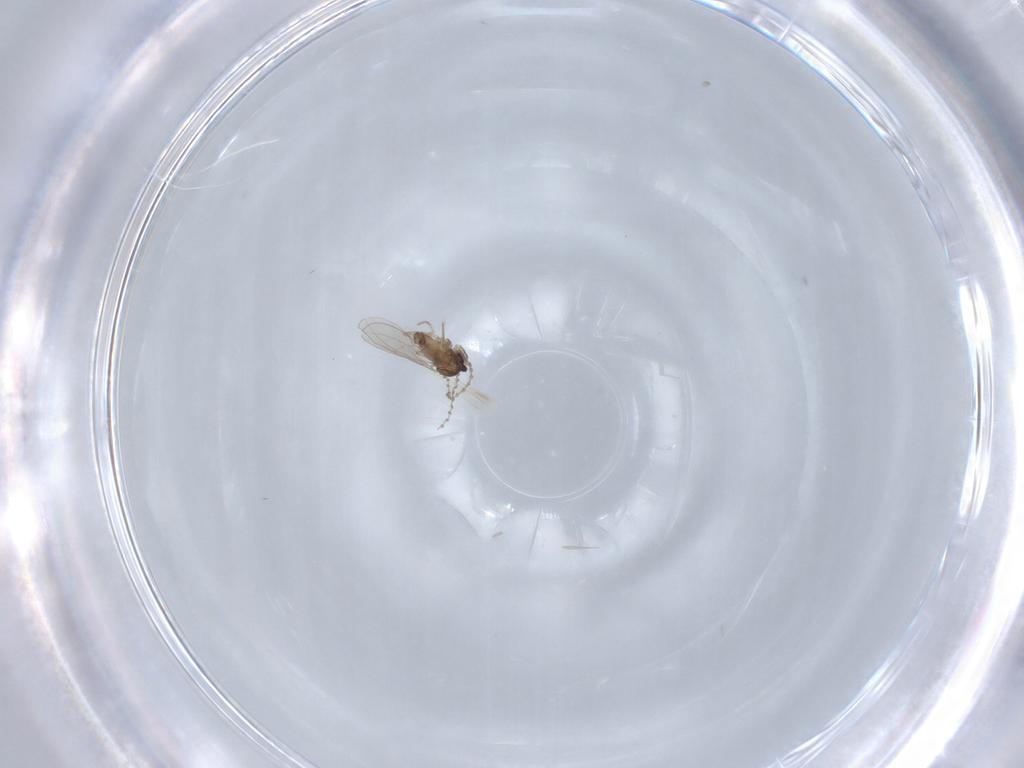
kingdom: Animalia
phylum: Arthropoda
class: Insecta
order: Diptera
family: Cecidomyiidae
